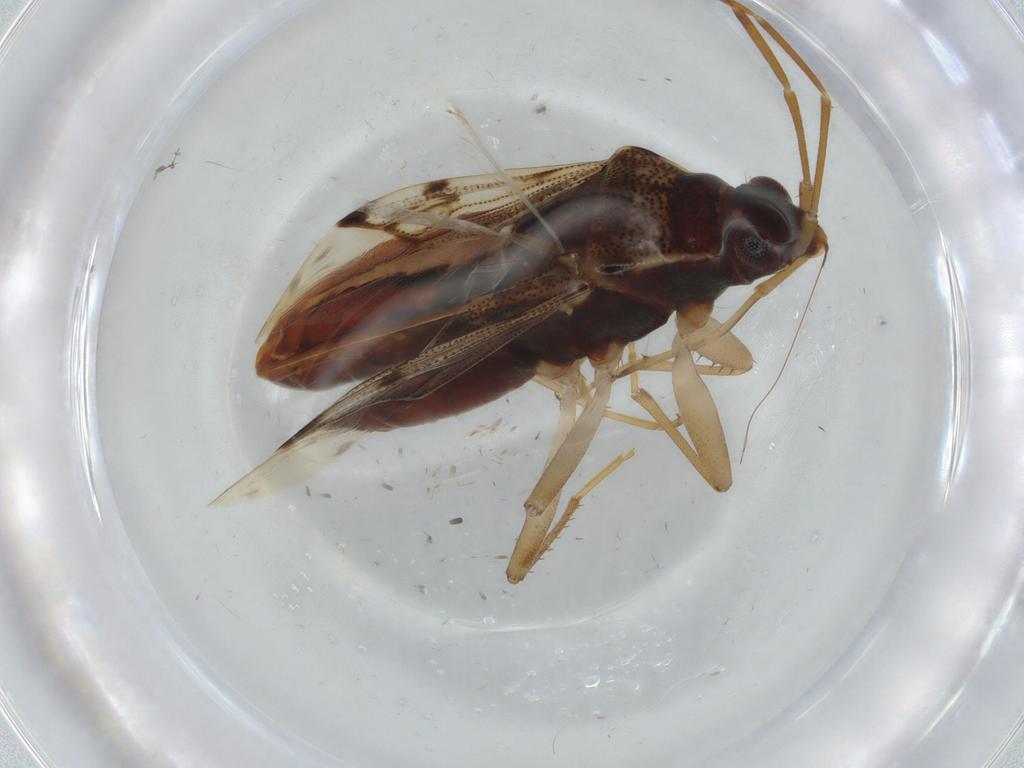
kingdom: Animalia
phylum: Arthropoda
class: Insecta
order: Hemiptera
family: Rhyparochromidae
